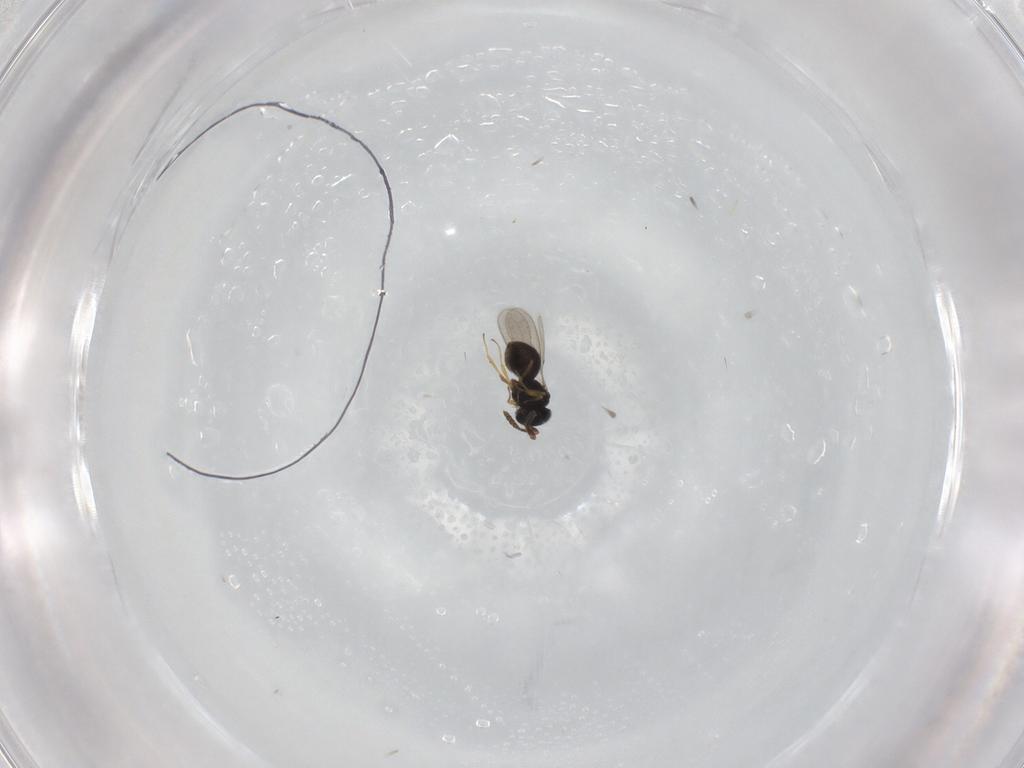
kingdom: Animalia
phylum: Arthropoda
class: Insecta
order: Hymenoptera
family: Scelionidae
